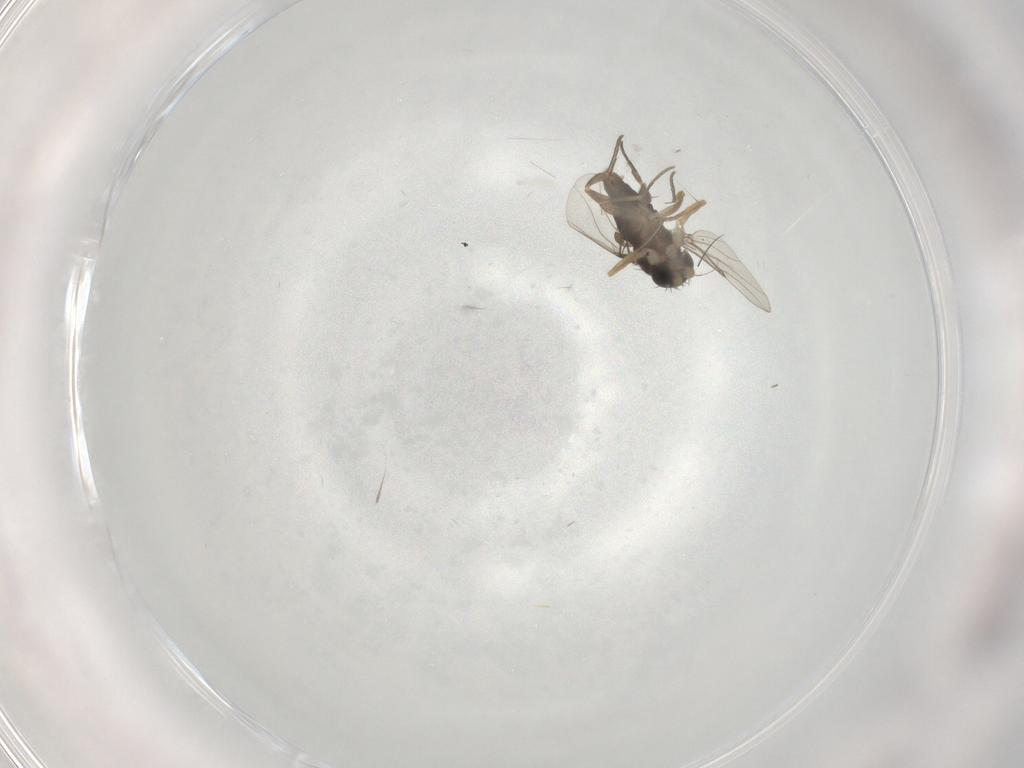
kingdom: Animalia
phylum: Arthropoda
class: Insecta
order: Diptera
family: Phoridae
